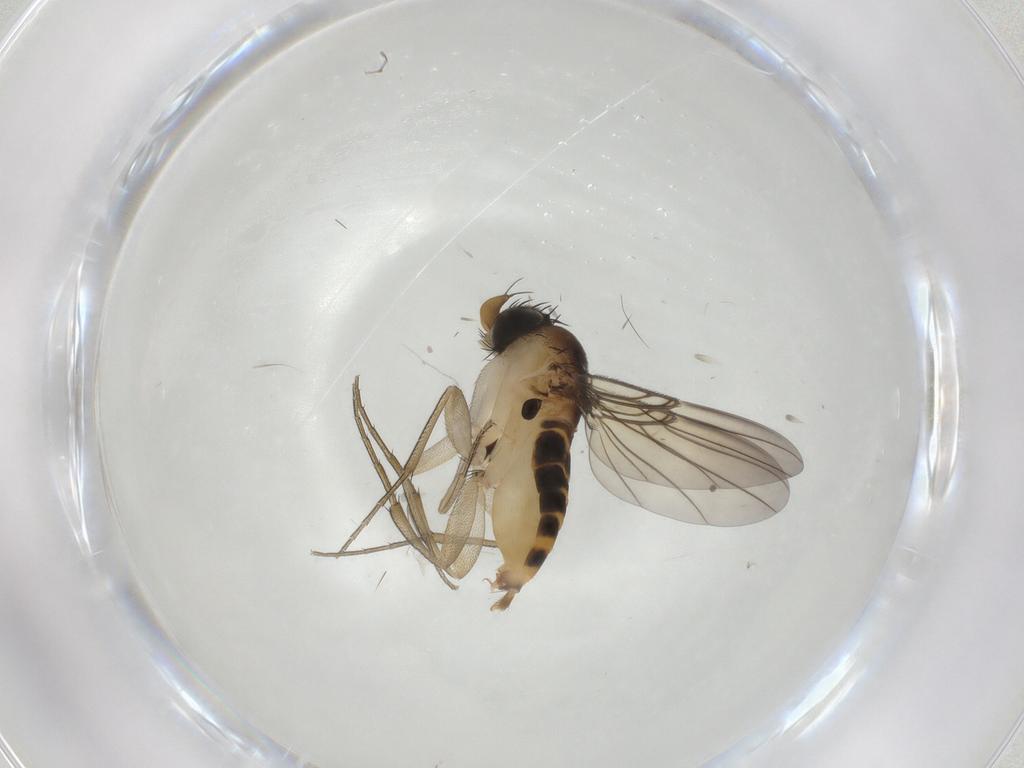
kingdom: Animalia
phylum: Arthropoda
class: Insecta
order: Diptera
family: Phoridae
